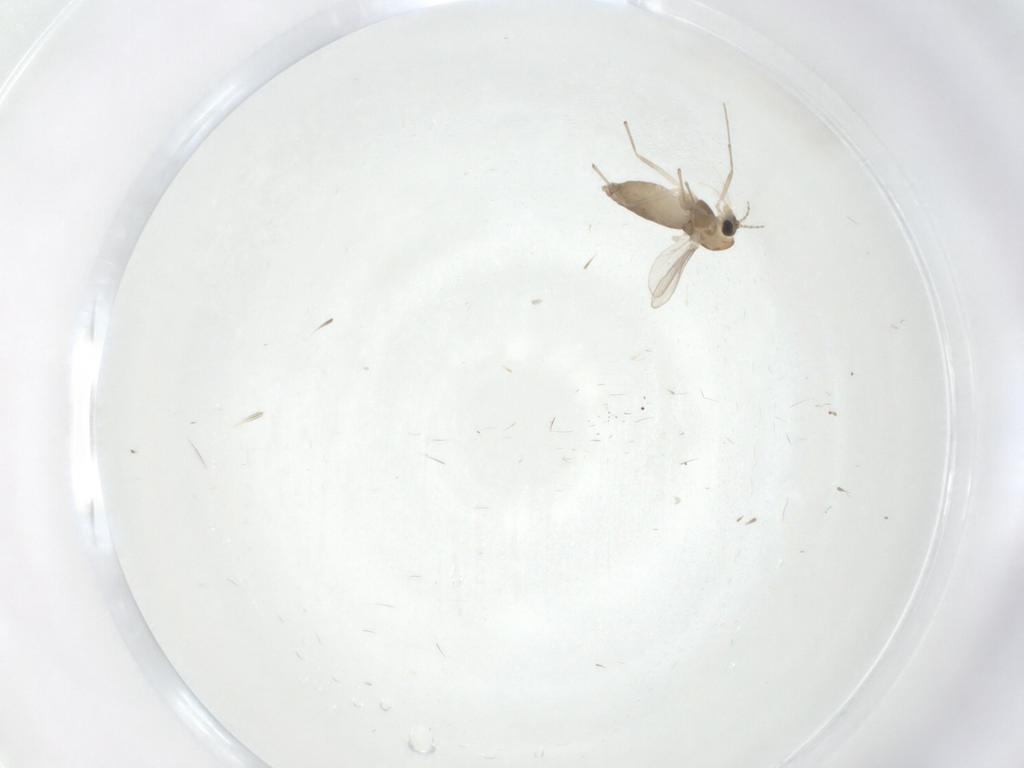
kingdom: Animalia
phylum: Arthropoda
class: Insecta
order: Diptera
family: Chironomidae
